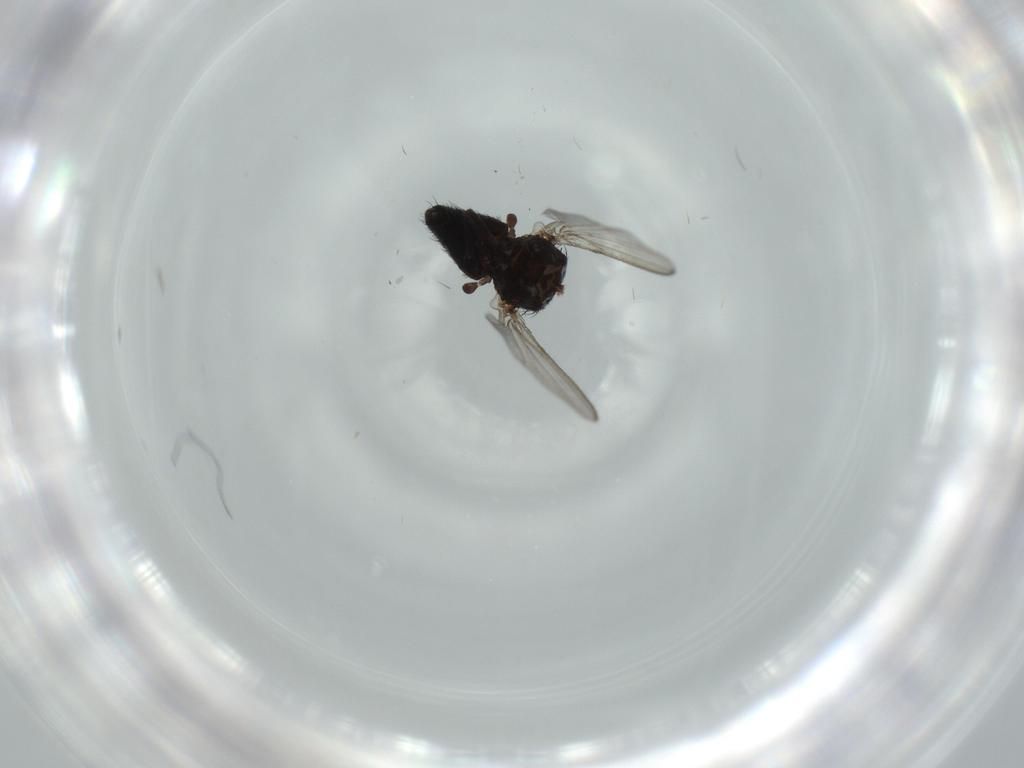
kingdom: Animalia
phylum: Arthropoda
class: Insecta
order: Diptera
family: Milichiidae
